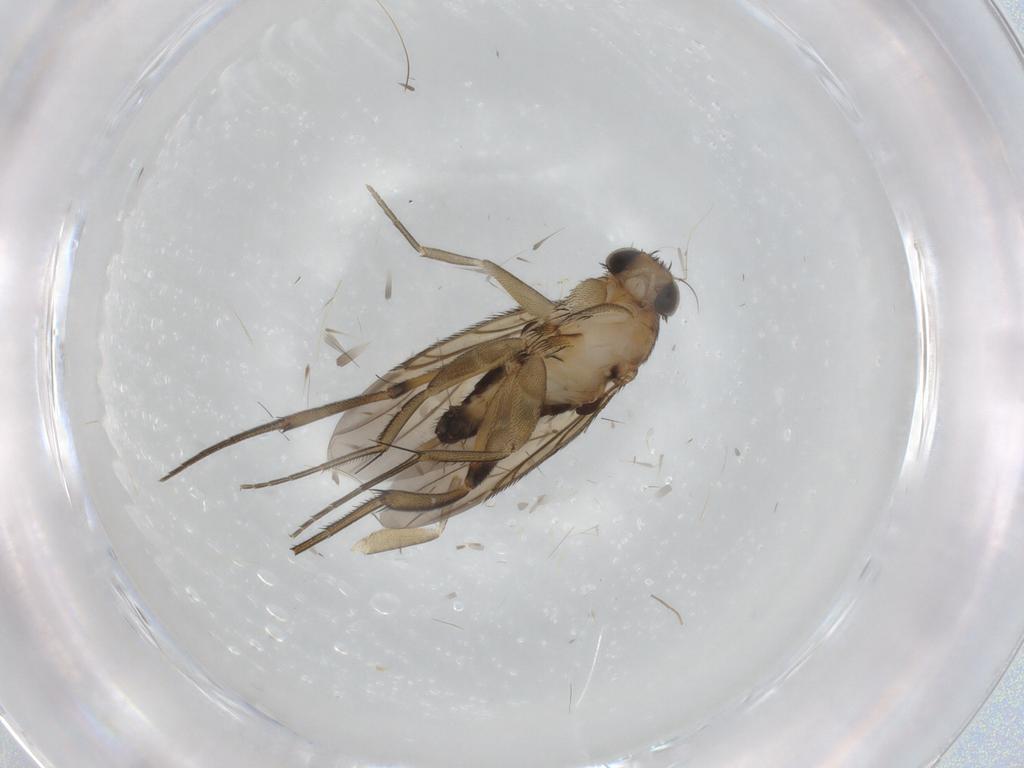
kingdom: Animalia
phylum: Arthropoda
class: Insecta
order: Diptera
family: Phoridae
